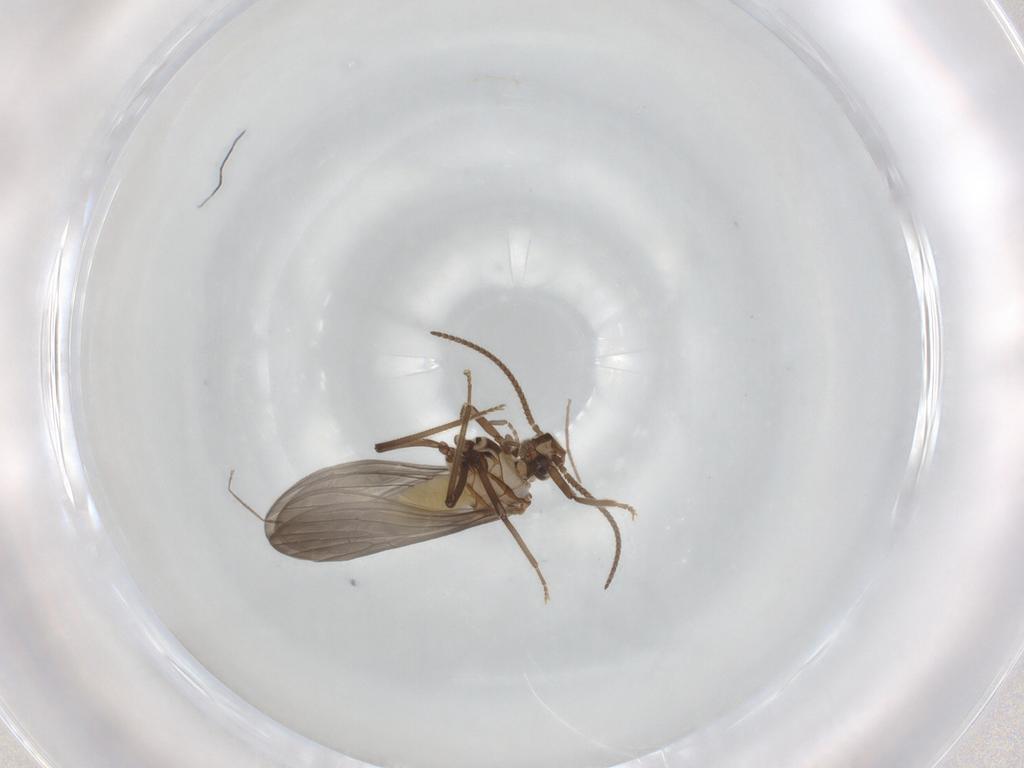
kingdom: Animalia
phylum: Arthropoda
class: Insecta
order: Neuroptera
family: Coniopterygidae
